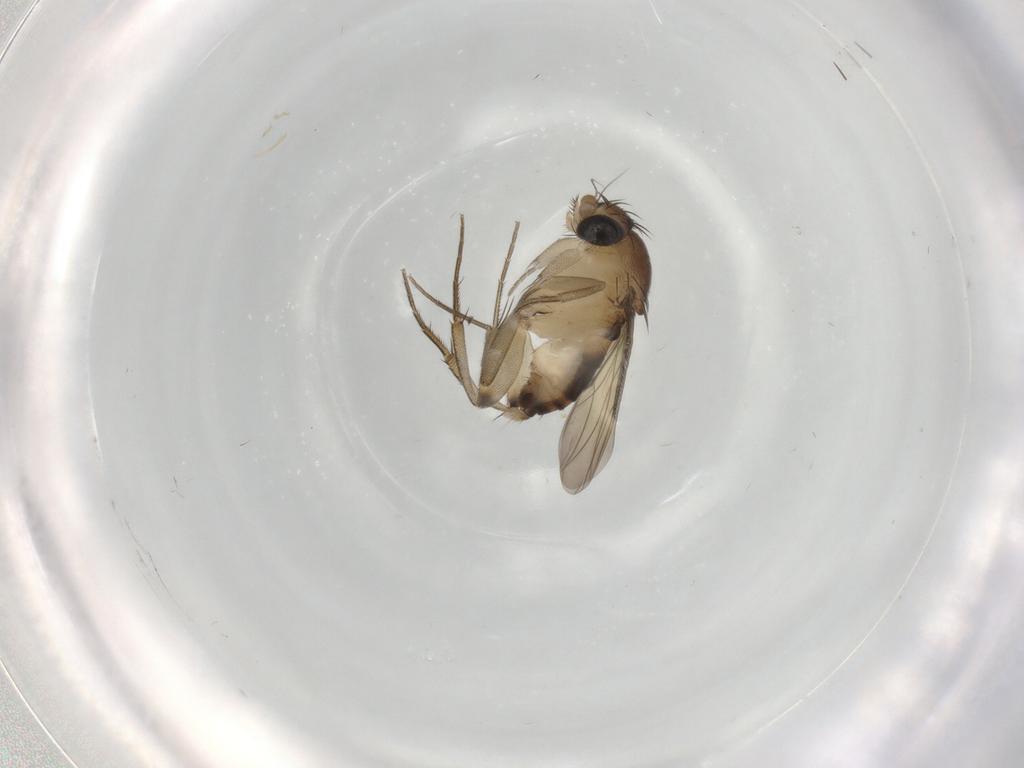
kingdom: Animalia
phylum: Arthropoda
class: Insecta
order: Diptera
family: Phoridae
